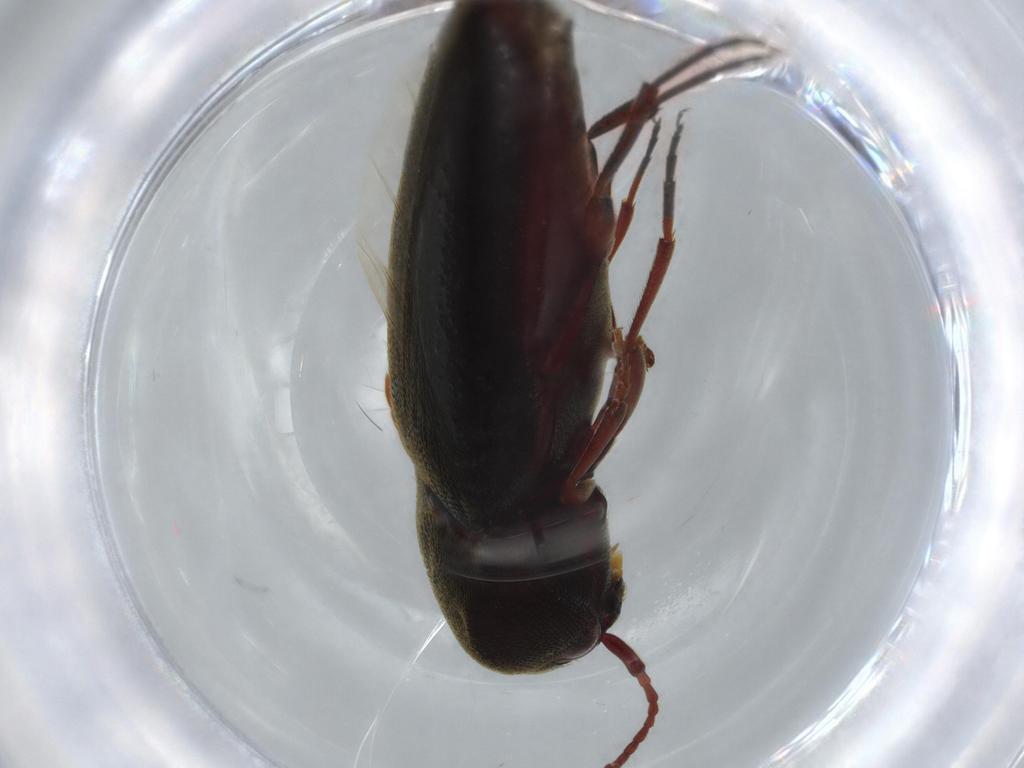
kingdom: Animalia
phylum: Arthropoda
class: Insecta
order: Coleoptera
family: Eucnemidae
